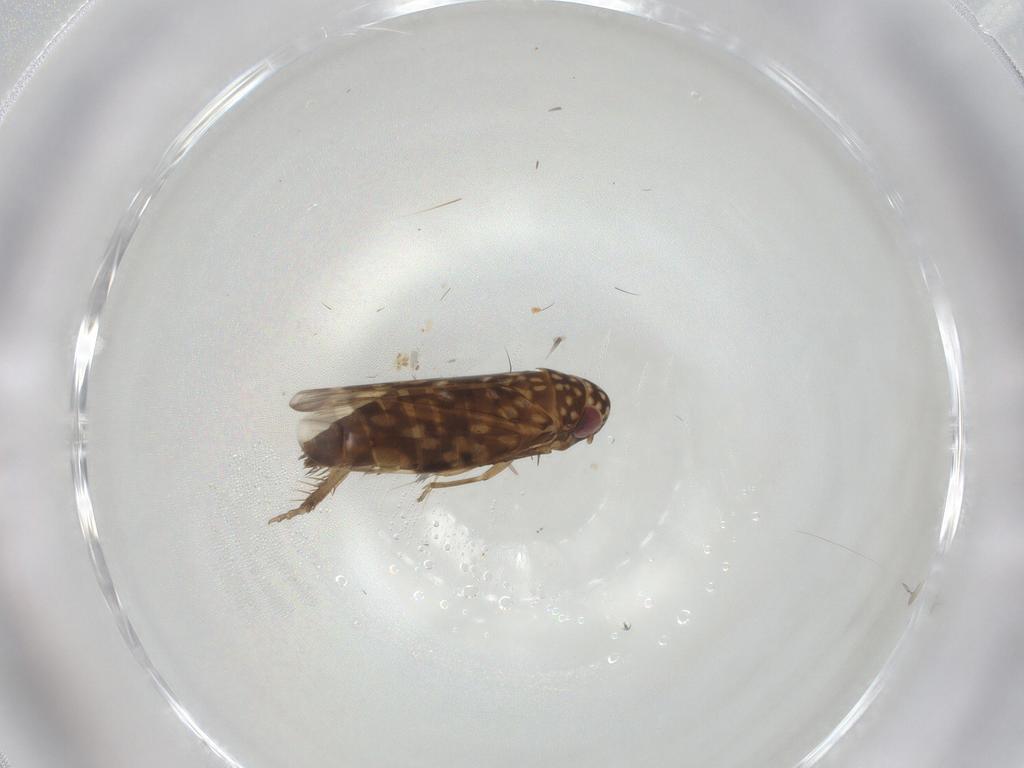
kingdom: Animalia
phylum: Arthropoda
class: Insecta
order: Hemiptera
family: Cicadellidae
